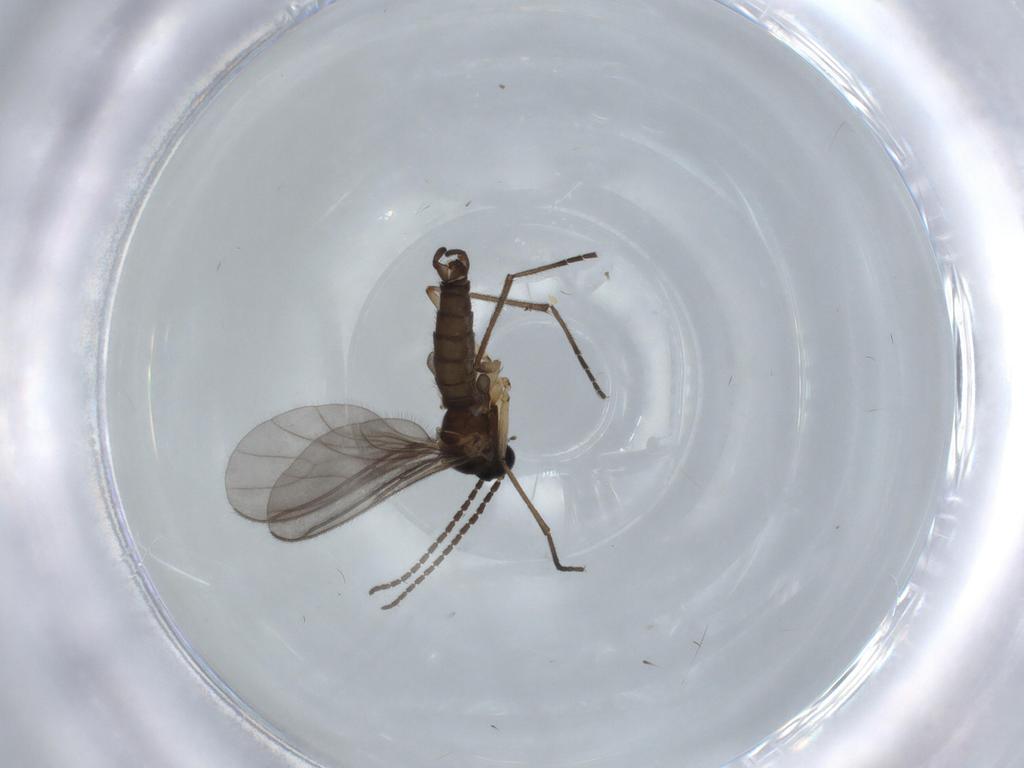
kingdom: Animalia
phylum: Arthropoda
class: Insecta
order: Diptera
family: Sciaridae
